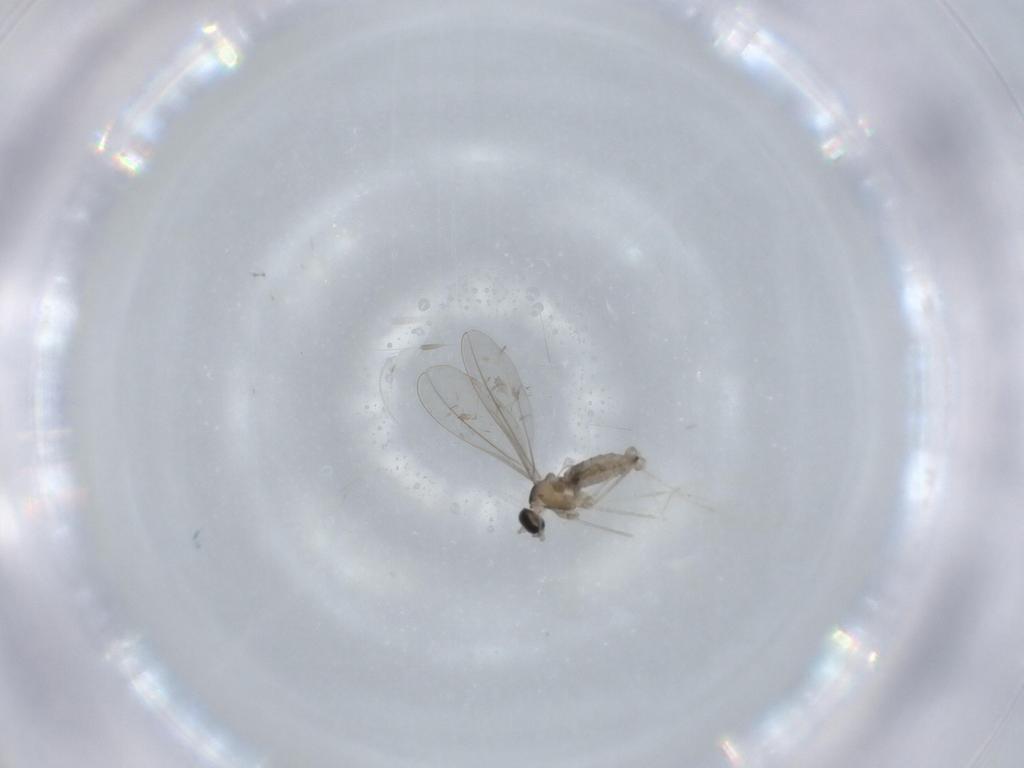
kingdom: Animalia
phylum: Arthropoda
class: Insecta
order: Diptera
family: Cecidomyiidae
